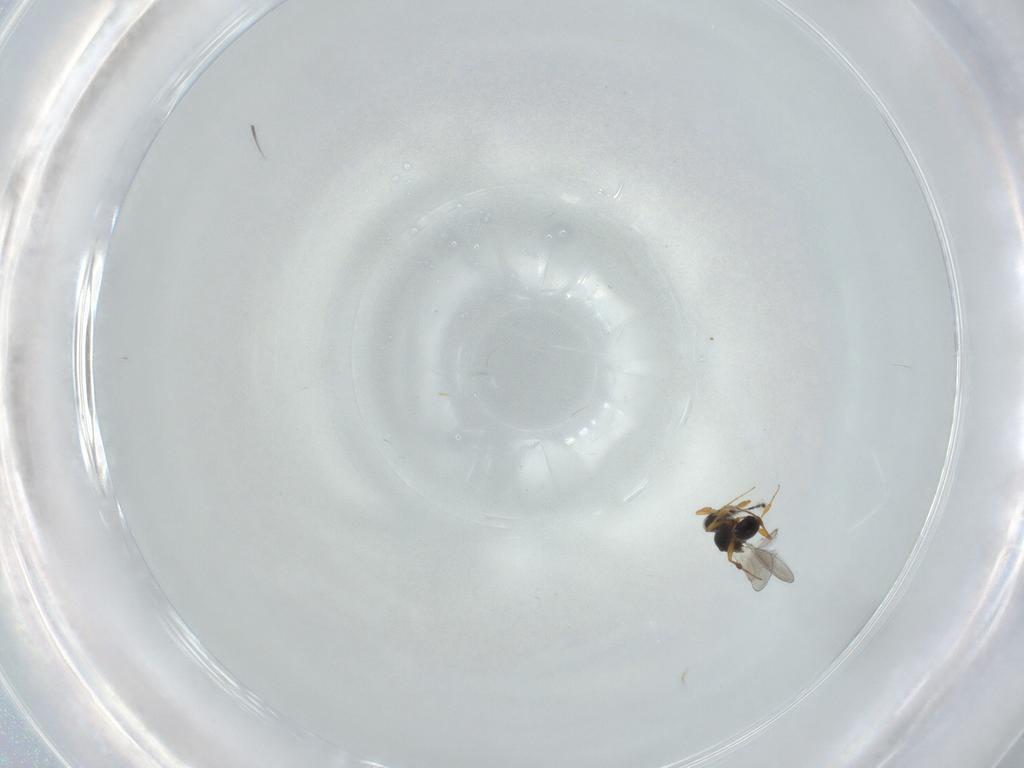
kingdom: Animalia
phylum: Arthropoda
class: Insecta
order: Hymenoptera
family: Platygastridae
